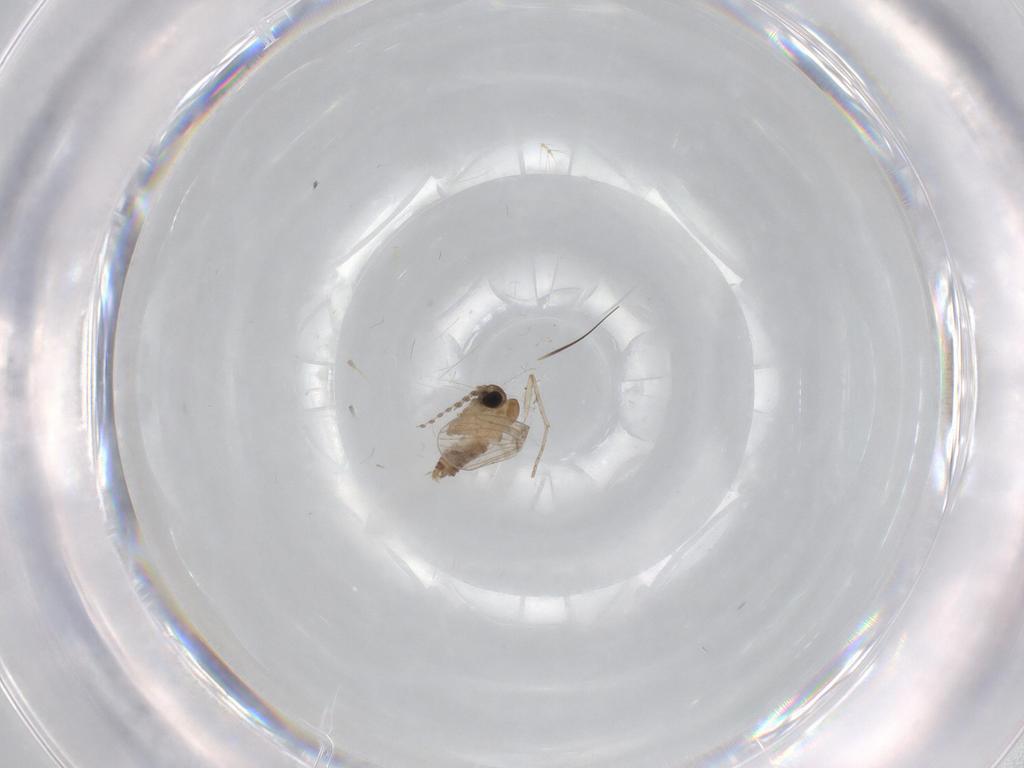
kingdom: Animalia
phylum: Arthropoda
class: Insecta
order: Diptera
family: Psychodidae
